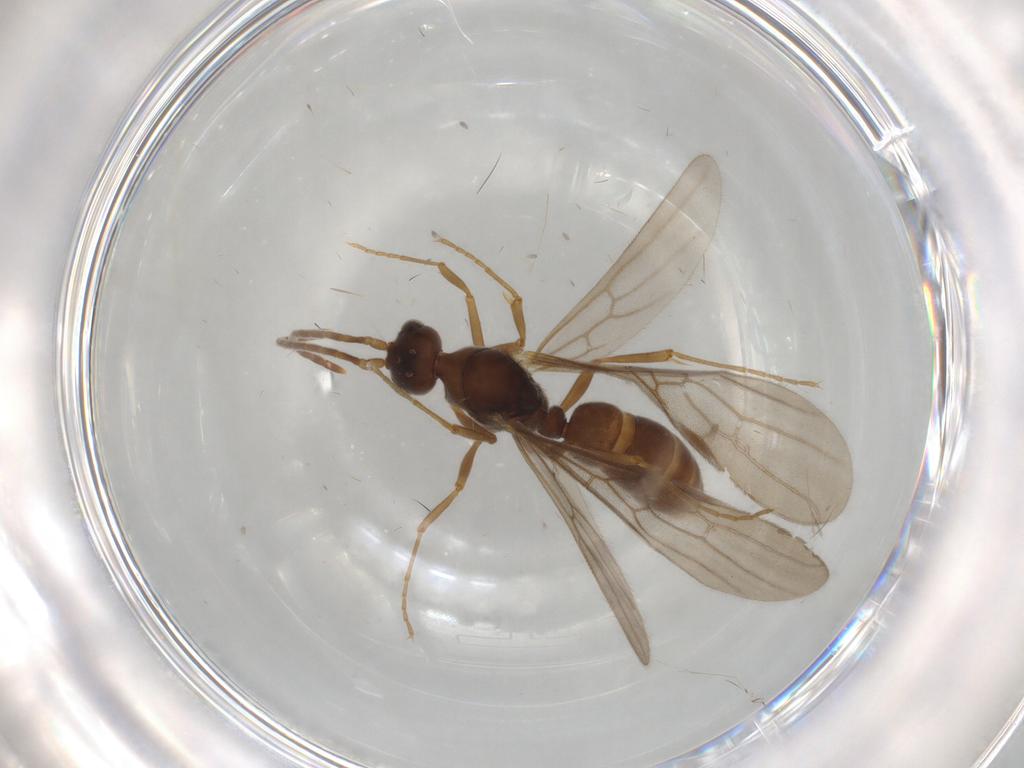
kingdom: Animalia
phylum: Arthropoda
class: Insecta
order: Hymenoptera
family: Formicidae
